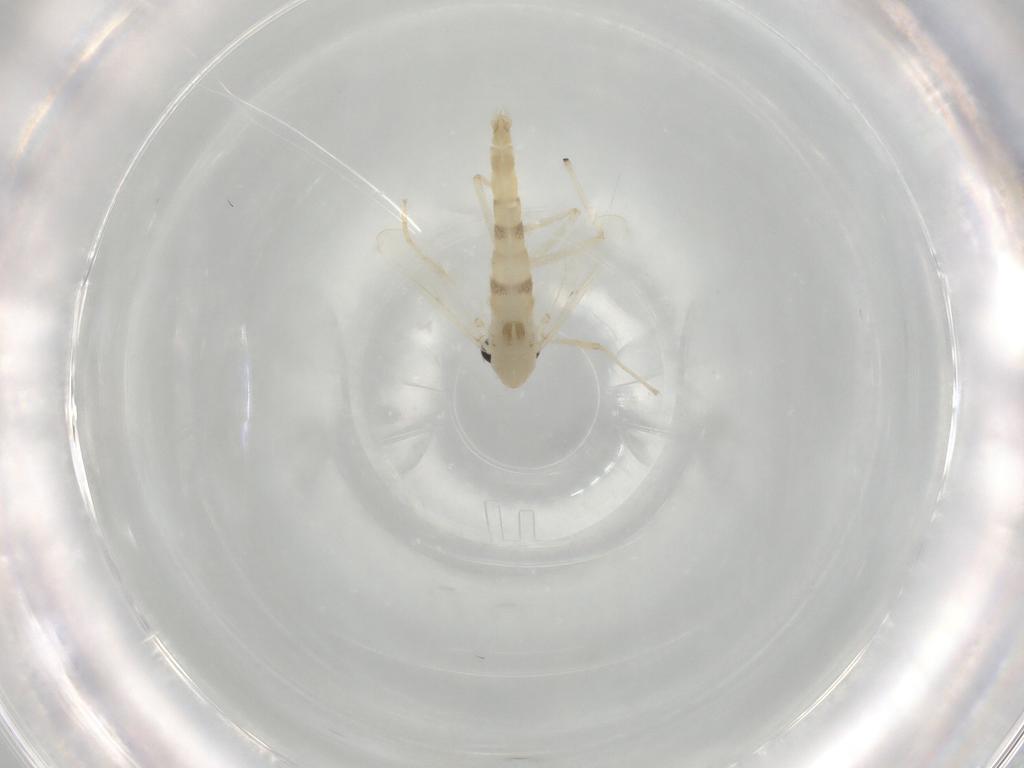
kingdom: Animalia
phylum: Arthropoda
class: Insecta
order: Diptera
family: Chironomidae
